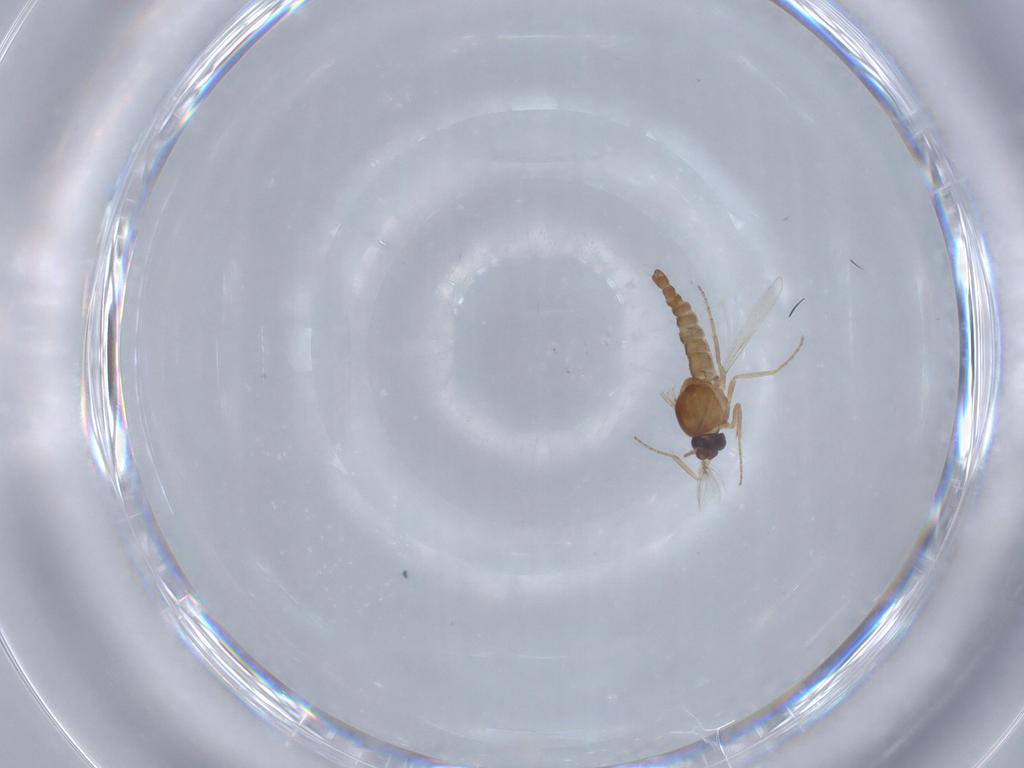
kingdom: Animalia
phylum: Arthropoda
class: Insecta
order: Diptera
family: Ceratopogonidae
